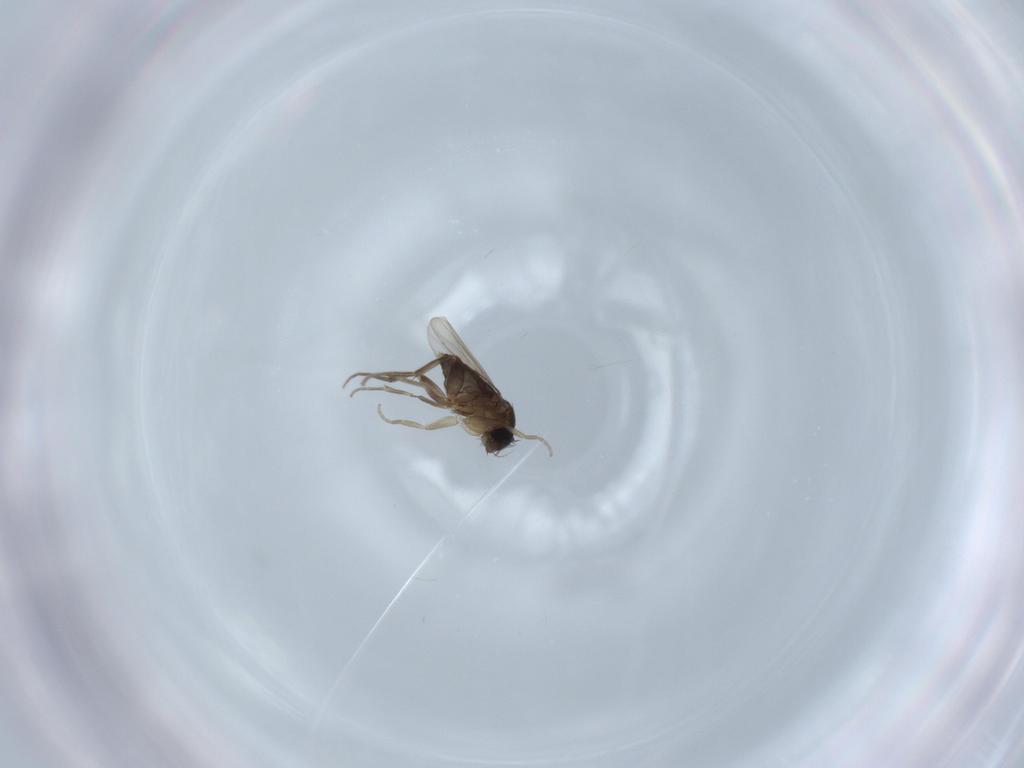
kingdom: Animalia
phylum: Arthropoda
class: Insecta
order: Diptera
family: Phoridae
